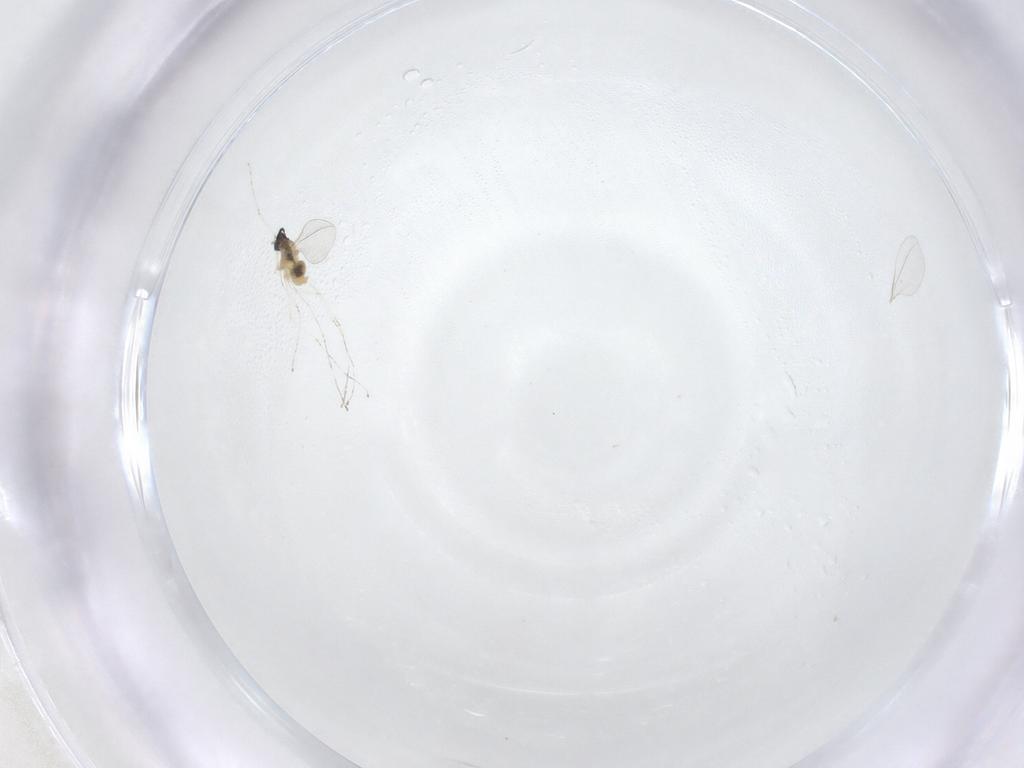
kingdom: Animalia
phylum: Arthropoda
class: Insecta
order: Diptera
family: Cecidomyiidae
